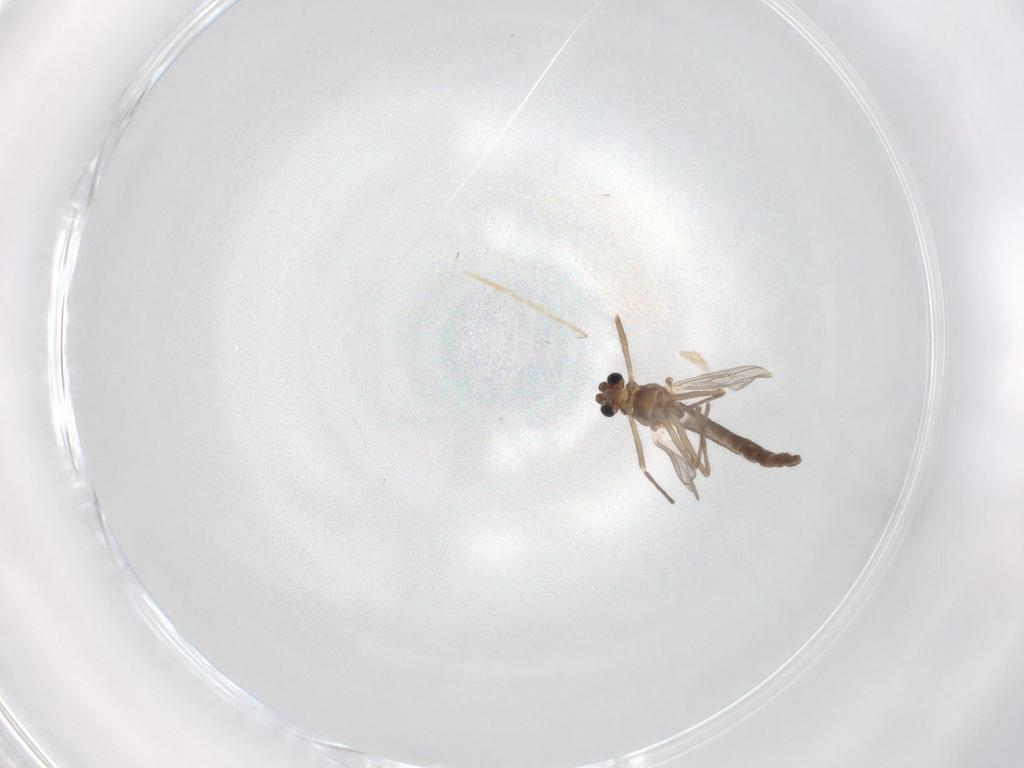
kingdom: Animalia
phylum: Arthropoda
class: Insecta
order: Diptera
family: Chironomidae
